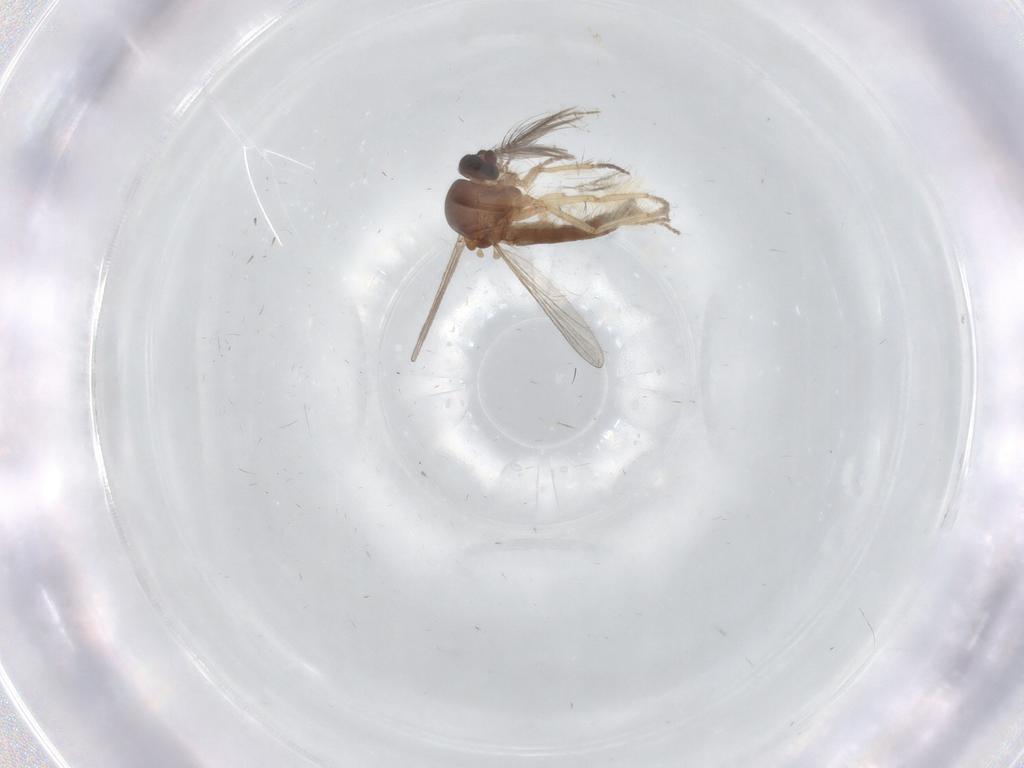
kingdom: Animalia
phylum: Arthropoda
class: Insecta
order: Diptera
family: Ceratopogonidae
